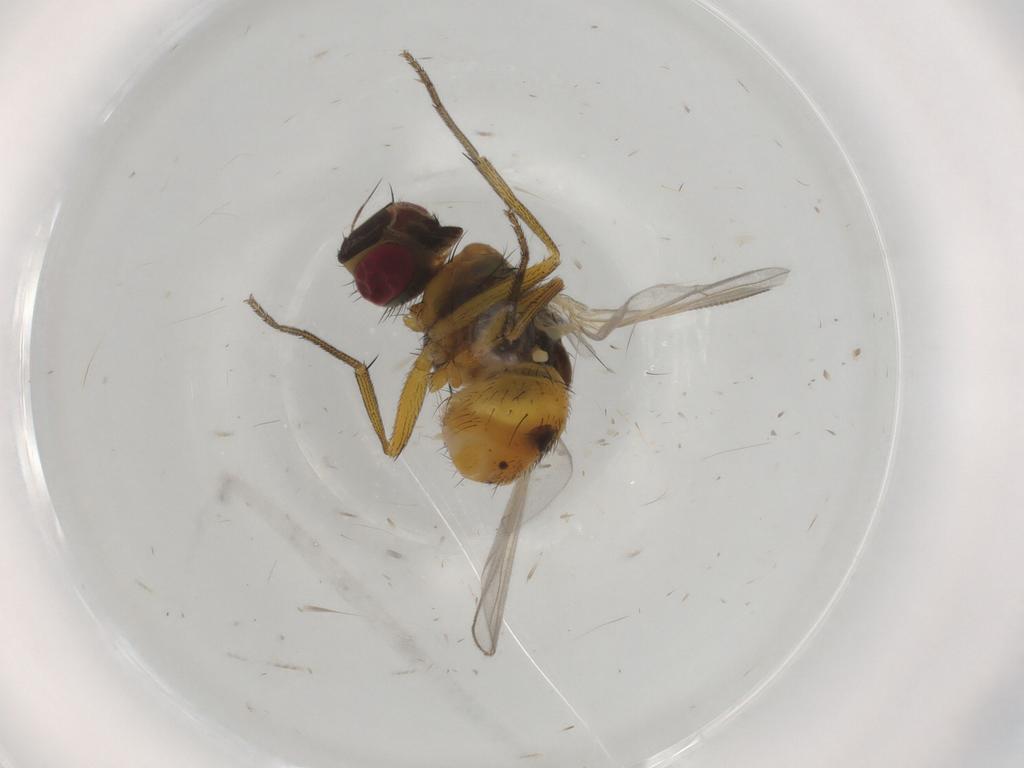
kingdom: Animalia
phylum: Arthropoda
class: Insecta
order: Diptera
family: Muscidae
